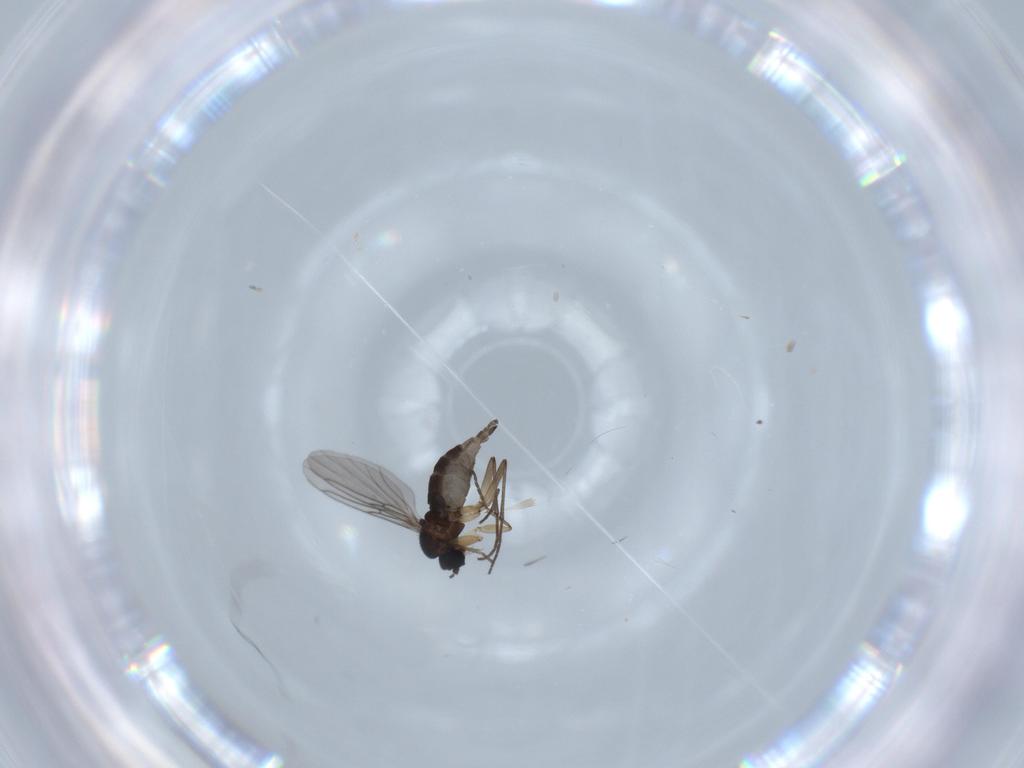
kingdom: Animalia
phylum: Arthropoda
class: Insecta
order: Diptera
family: Sciaridae
